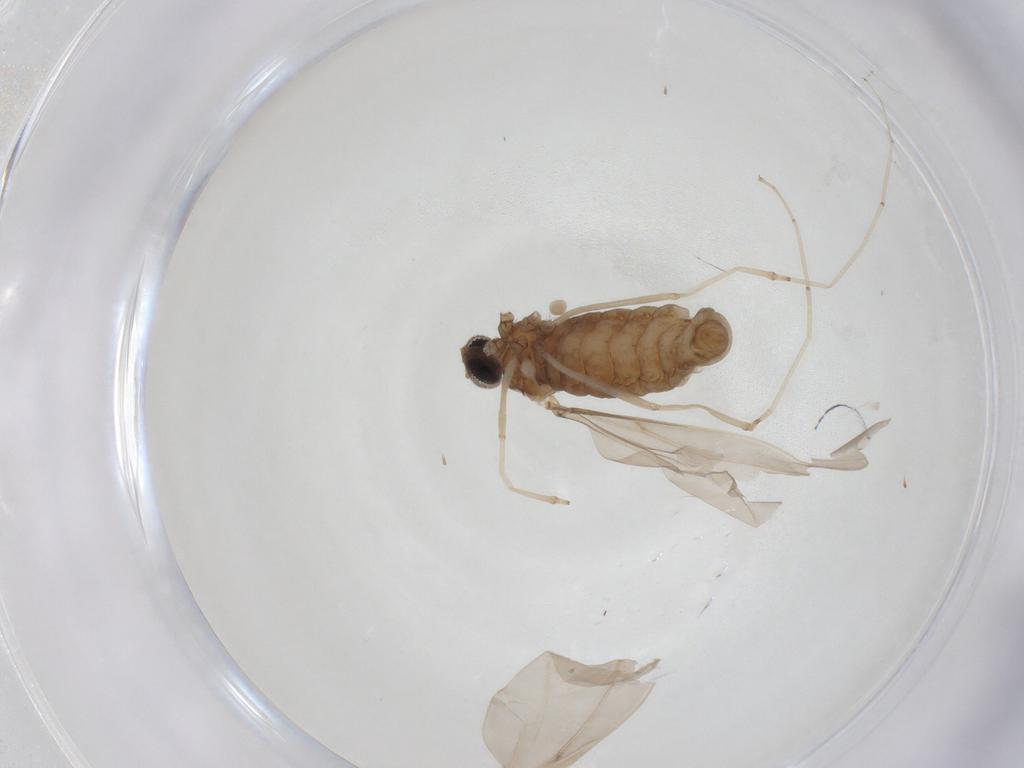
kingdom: Animalia
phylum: Arthropoda
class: Insecta
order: Diptera
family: Cecidomyiidae
